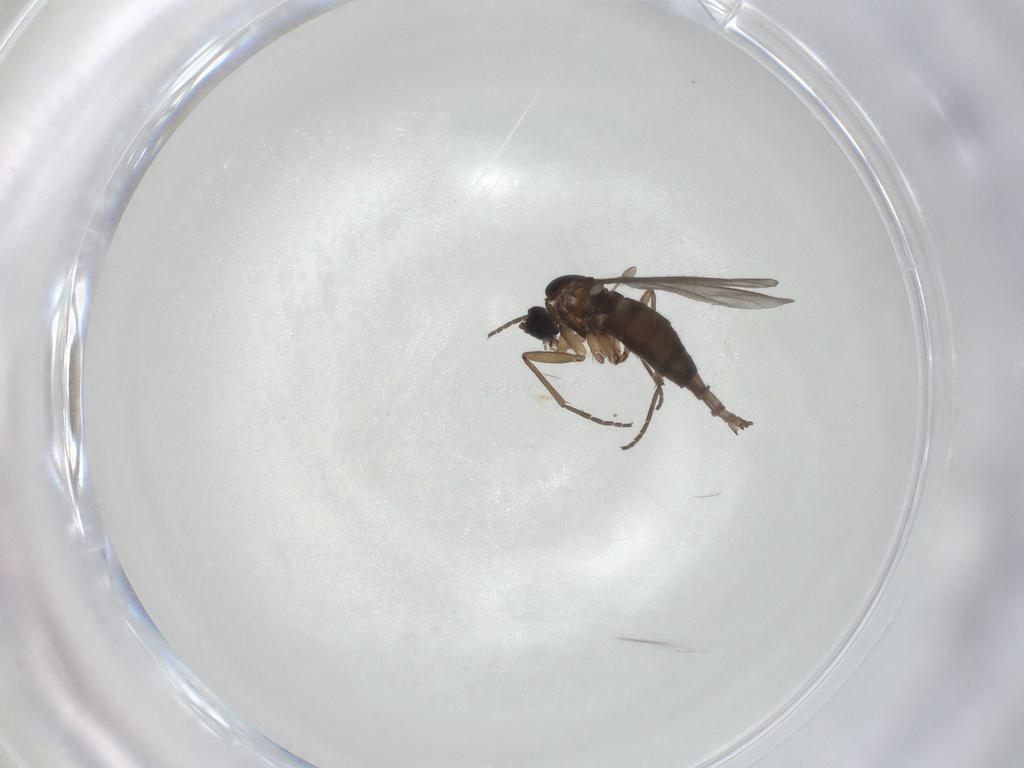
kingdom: Animalia
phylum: Arthropoda
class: Insecta
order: Diptera
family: Sciaridae
